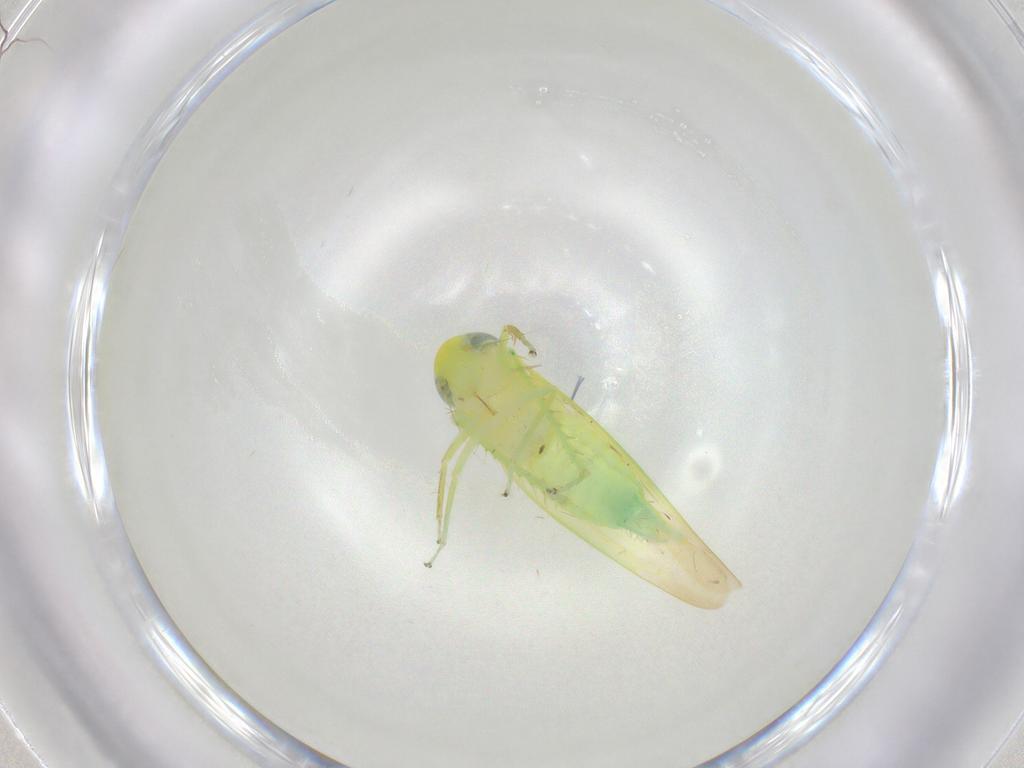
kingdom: Animalia
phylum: Arthropoda
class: Insecta
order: Hemiptera
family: Cicadellidae
